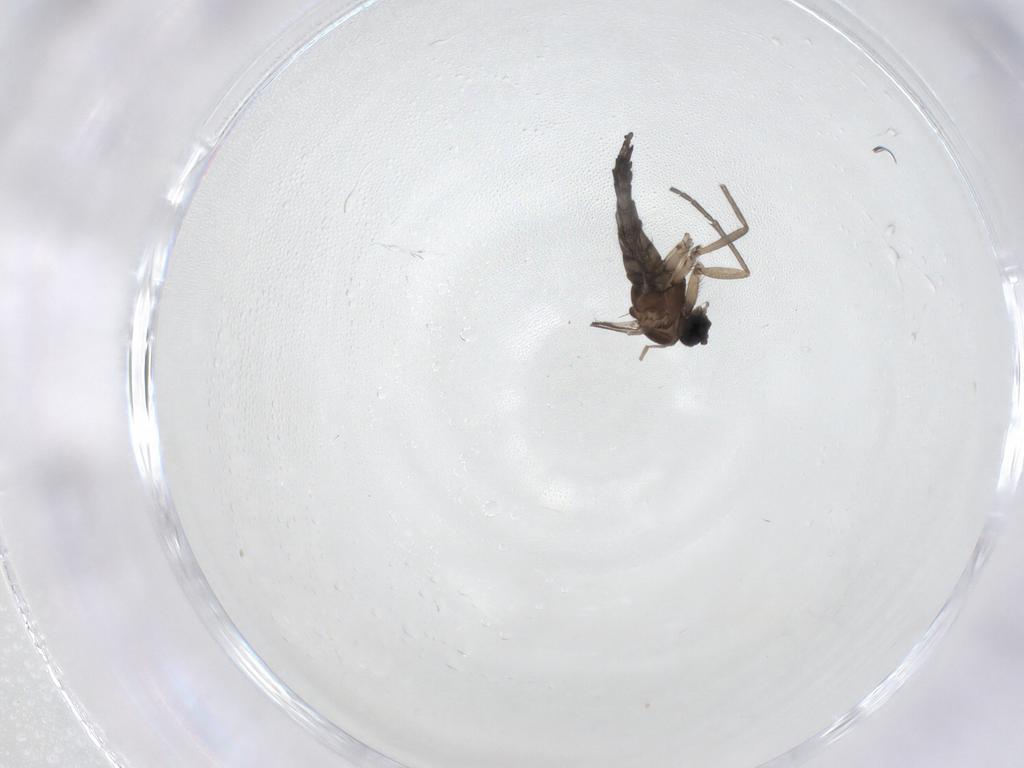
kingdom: Animalia
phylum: Arthropoda
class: Insecta
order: Diptera
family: Sciaridae
